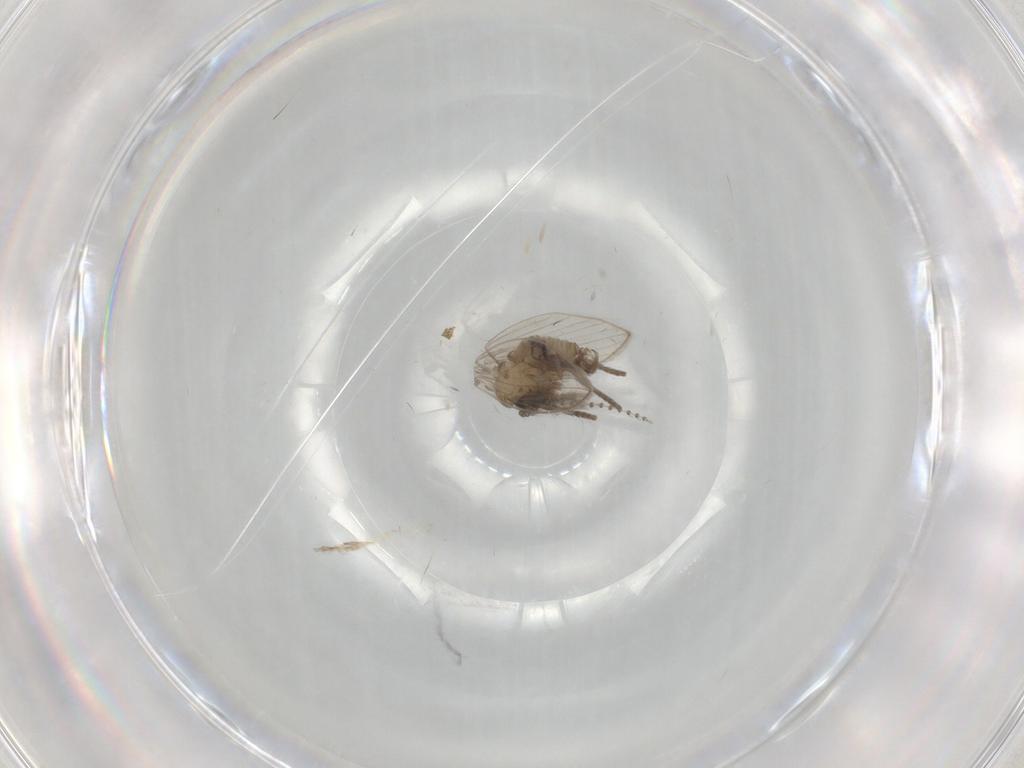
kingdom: Animalia
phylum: Arthropoda
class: Insecta
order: Diptera
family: Psychodidae
